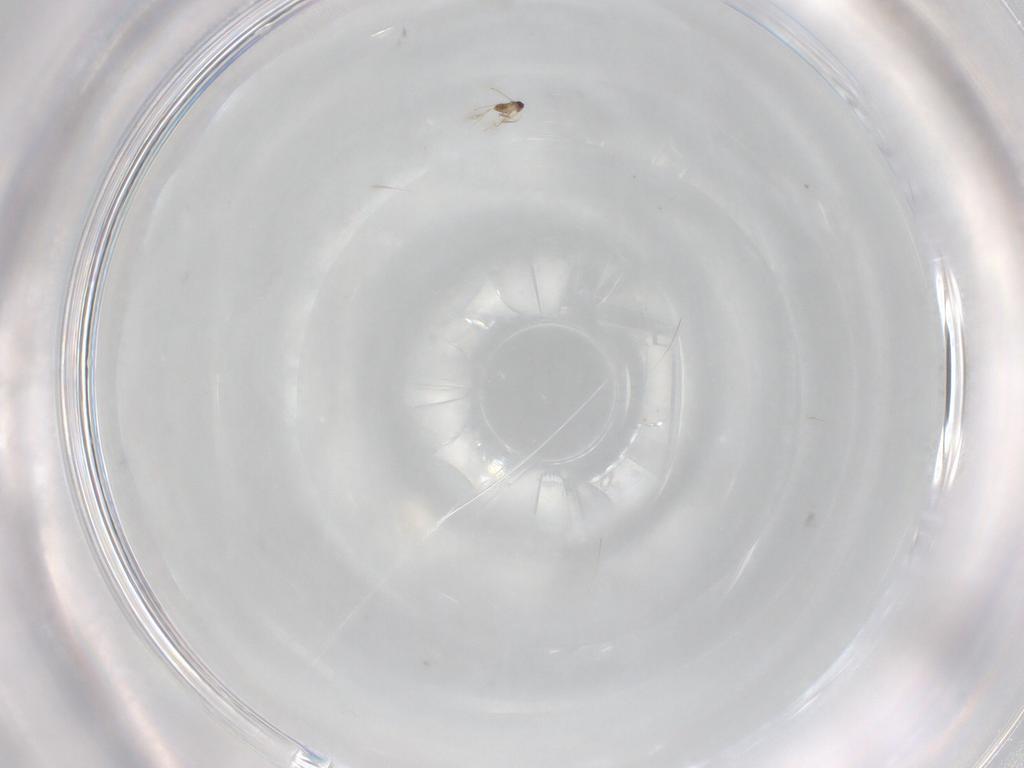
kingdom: Animalia
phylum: Arthropoda
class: Insecta
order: Hymenoptera
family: Mymaridae
